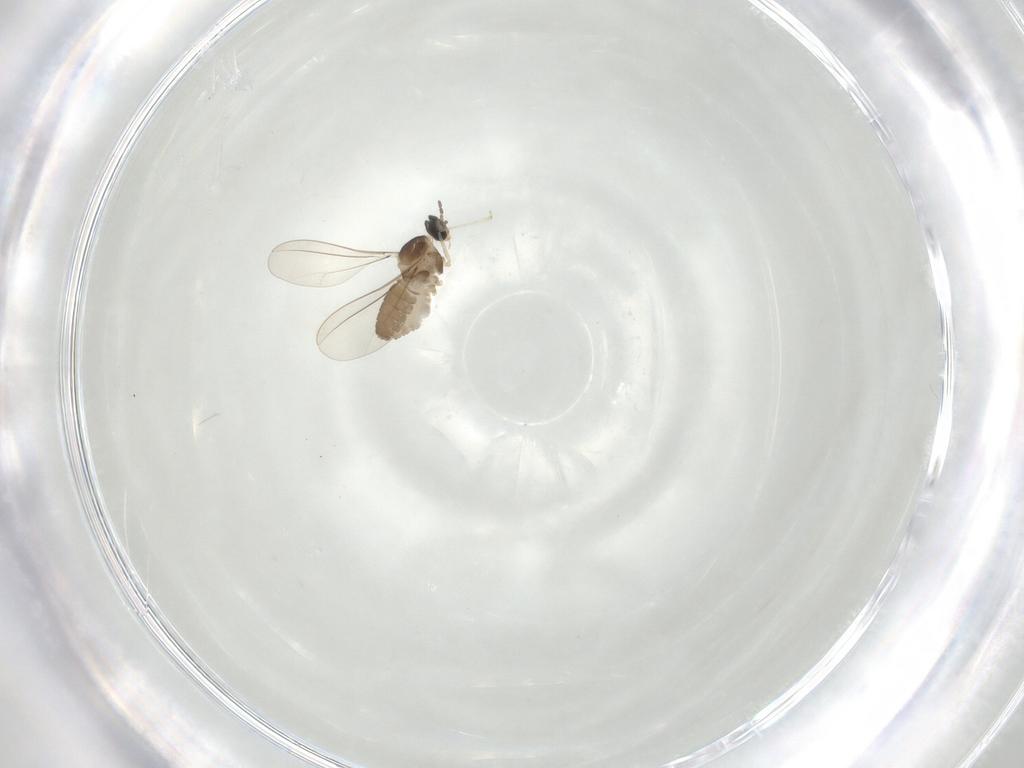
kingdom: Animalia
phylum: Arthropoda
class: Insecta
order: Diptera
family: Cecidomyiidae
